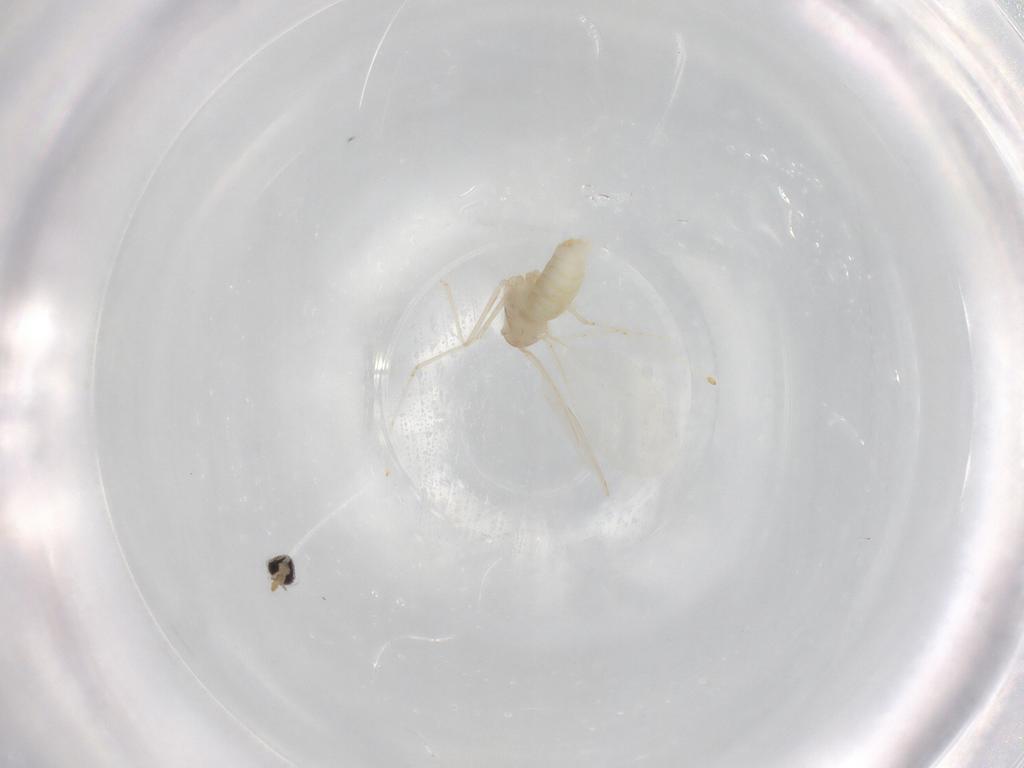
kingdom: Animalia
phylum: Arthropoda
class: Insecta
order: Diptera
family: Cecidomyiidae
